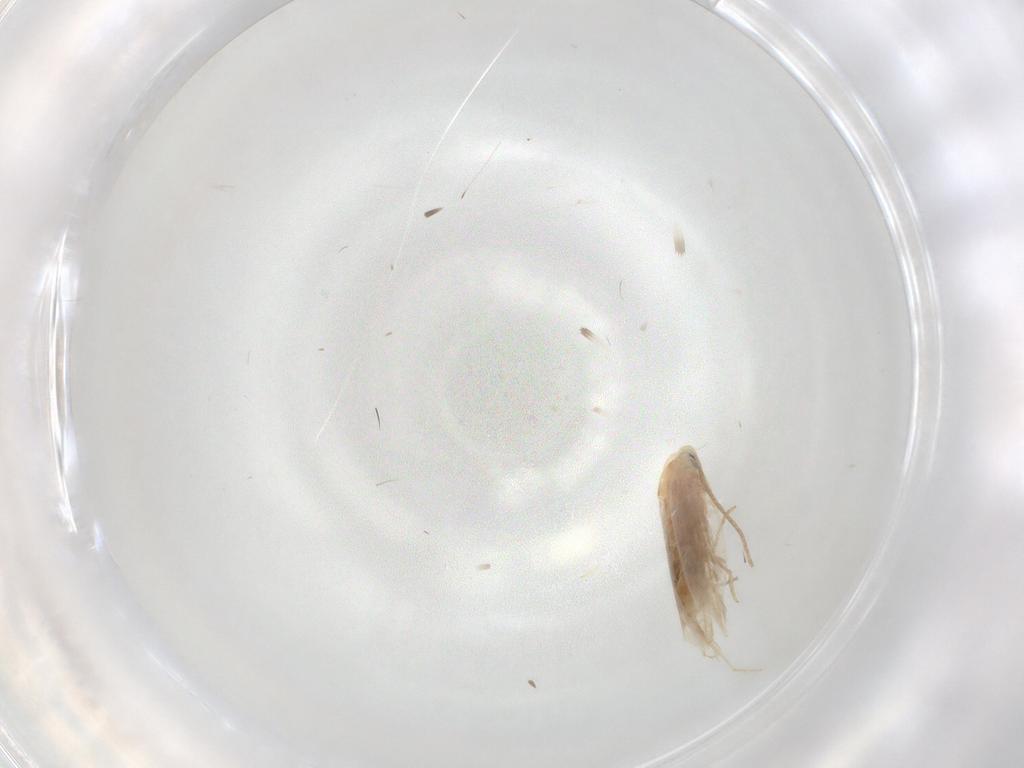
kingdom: Animalia
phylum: Arthropoda
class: Insecta
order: Lepidoptera
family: Lyonetiidae
